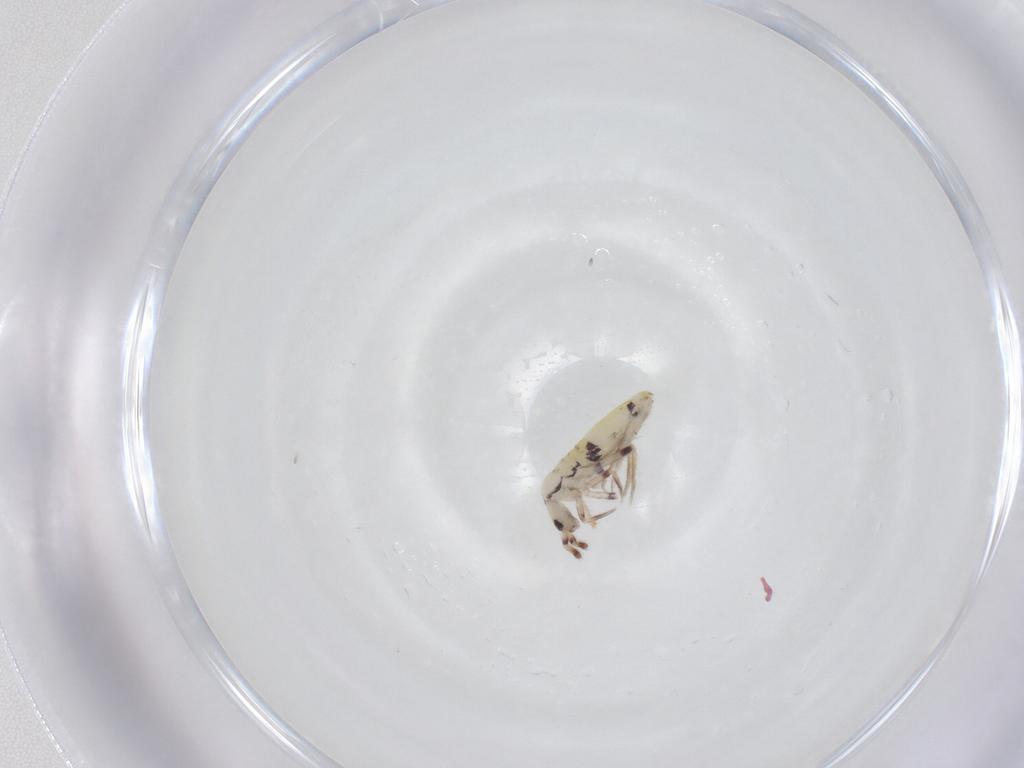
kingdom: Animalia
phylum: Arthropoda
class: Collembola
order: Entomobryomorpha
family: Entomobryidae
